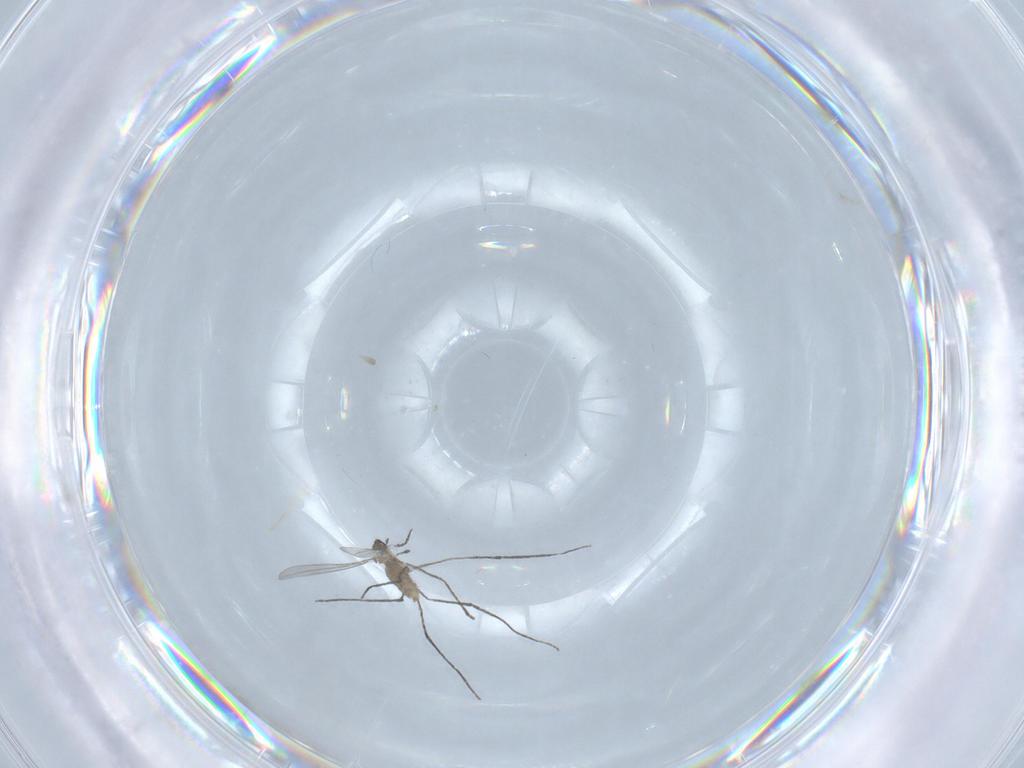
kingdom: Animalia
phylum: Arthropoda
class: Insecta
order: Diptera
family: Cecidomyiidae
